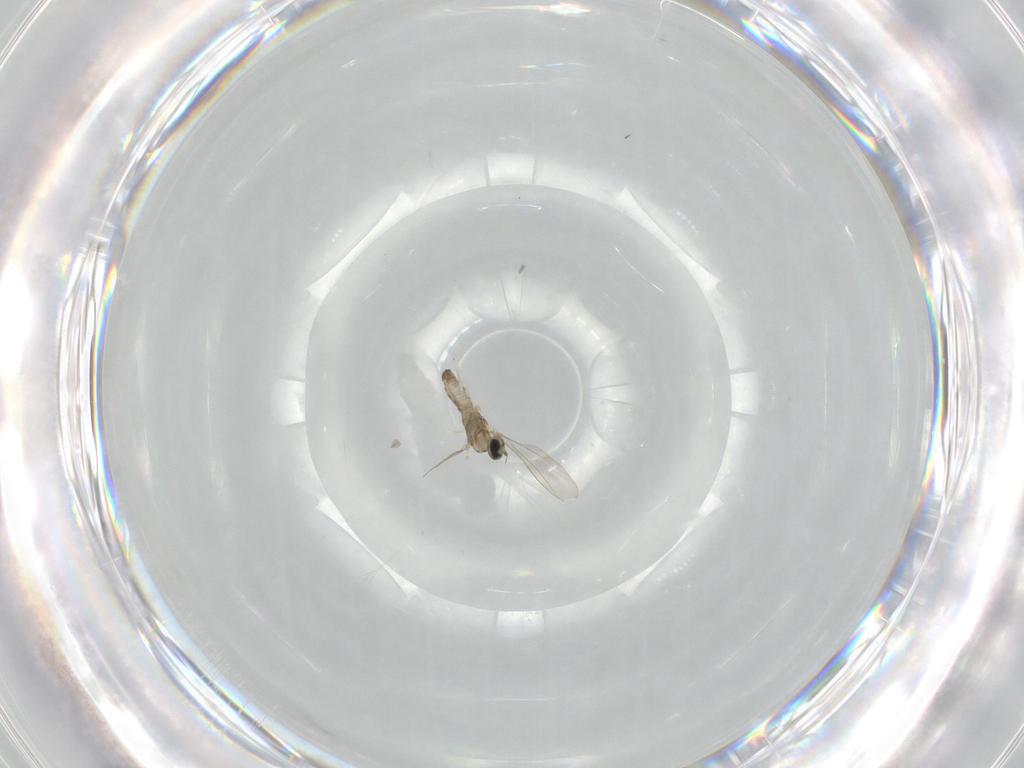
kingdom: Animalia
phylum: Arthropoda
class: Insecta
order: Diptera
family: Cecidomyiidae
